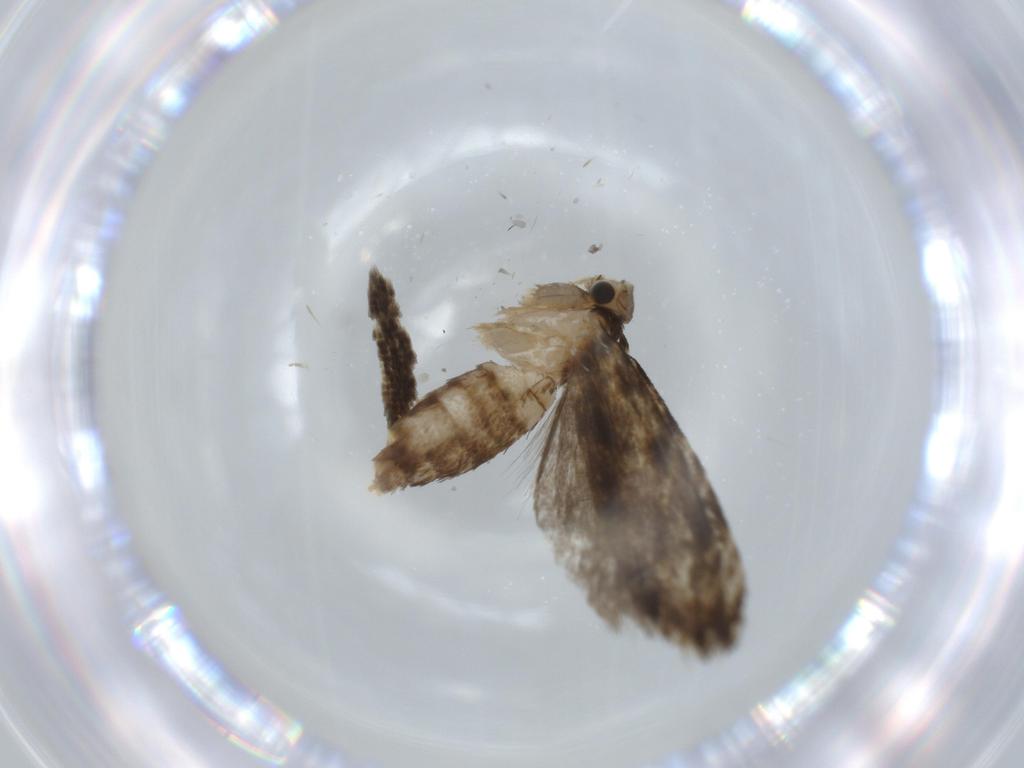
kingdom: Animalia
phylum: Arthropoda
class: Insecta
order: Lepidoptera
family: Tineidae
